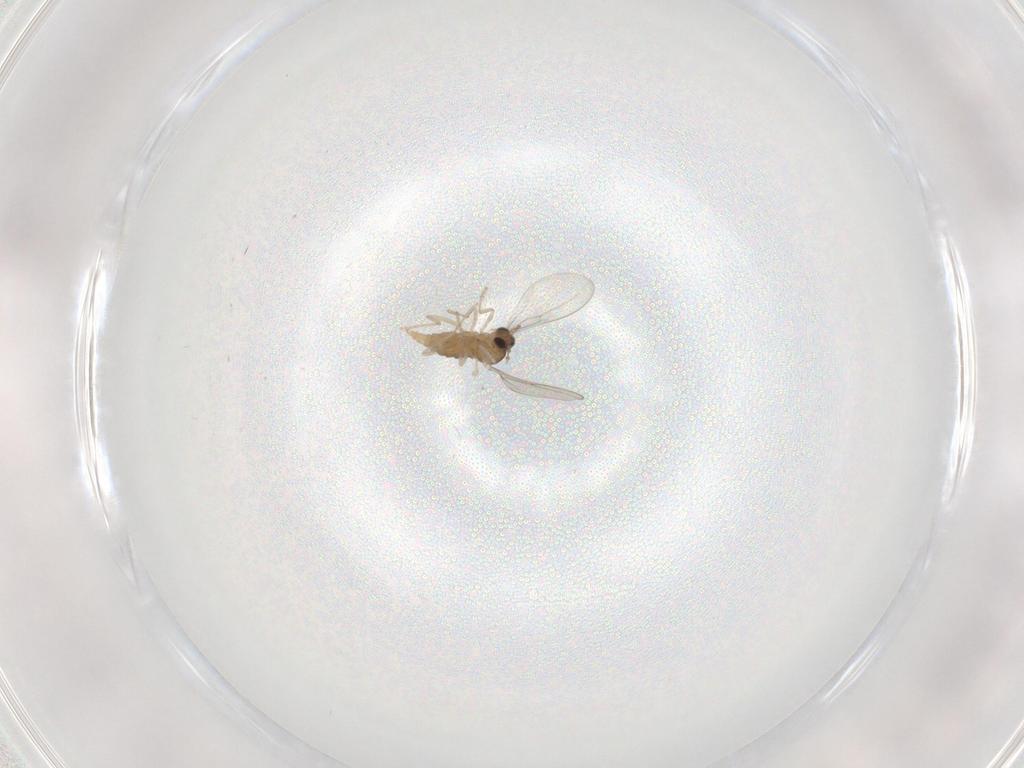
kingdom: Animalia
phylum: Arthropoda
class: Insecta
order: Diptera
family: Cecidomyiidae
